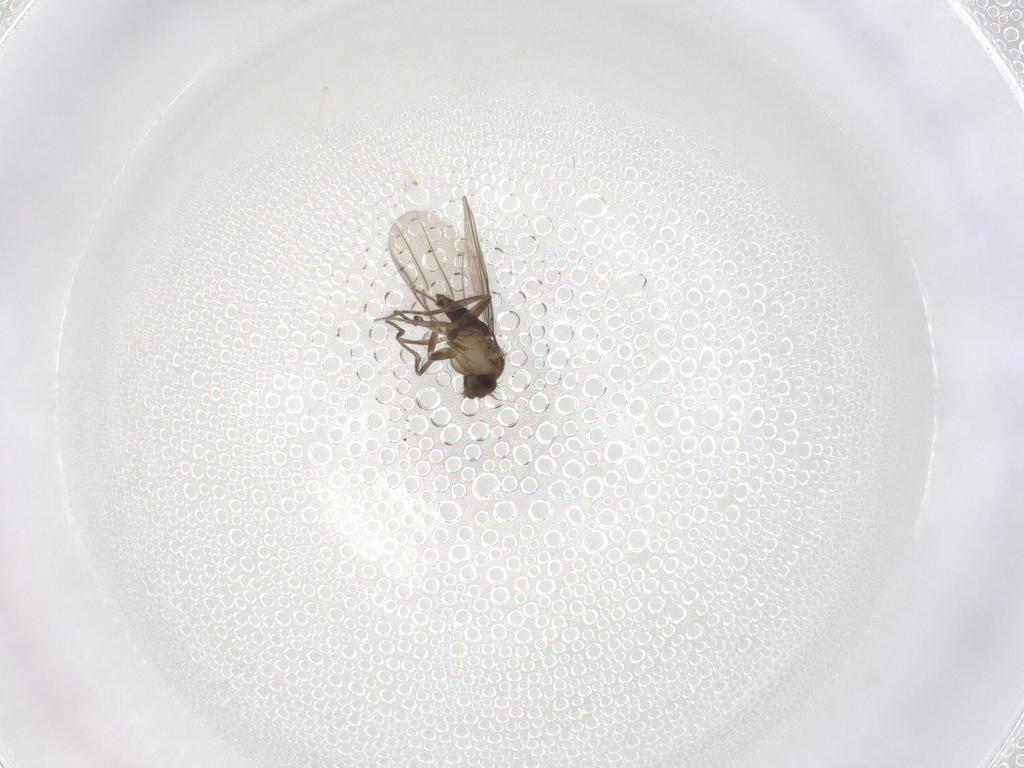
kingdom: Animalia
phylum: Arthropoda
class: Insecta
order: Diptera
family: Phoridae
